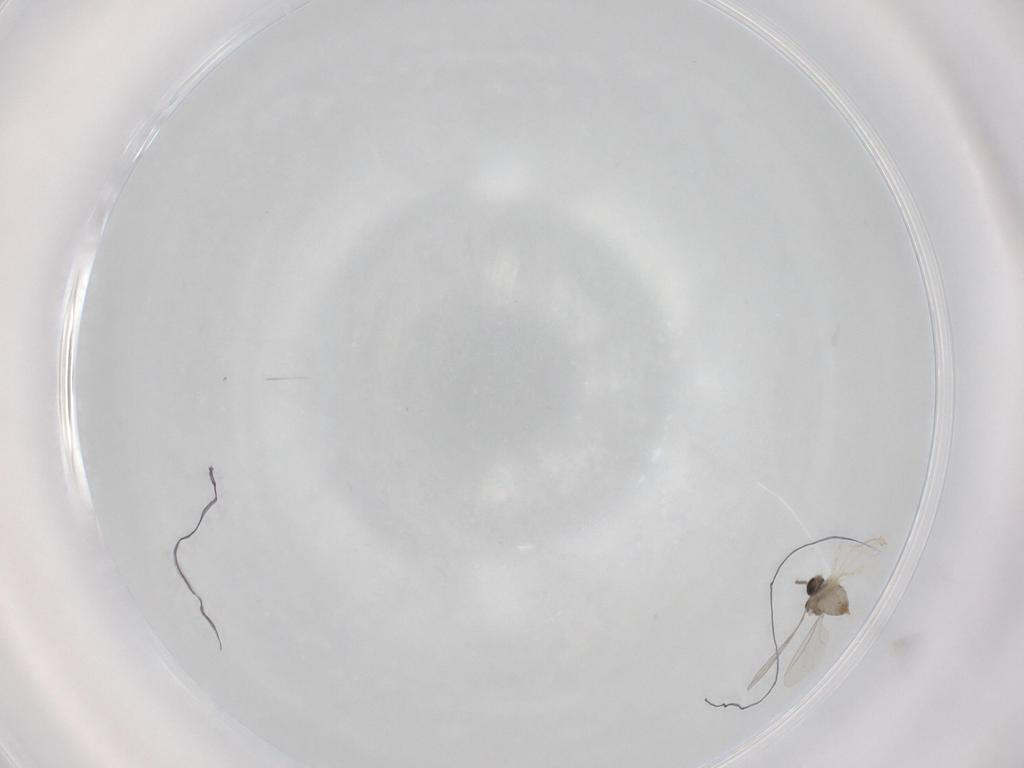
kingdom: Animalia
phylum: Arthropoda
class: Insecta
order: Diptera
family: Cecidomyiidae
